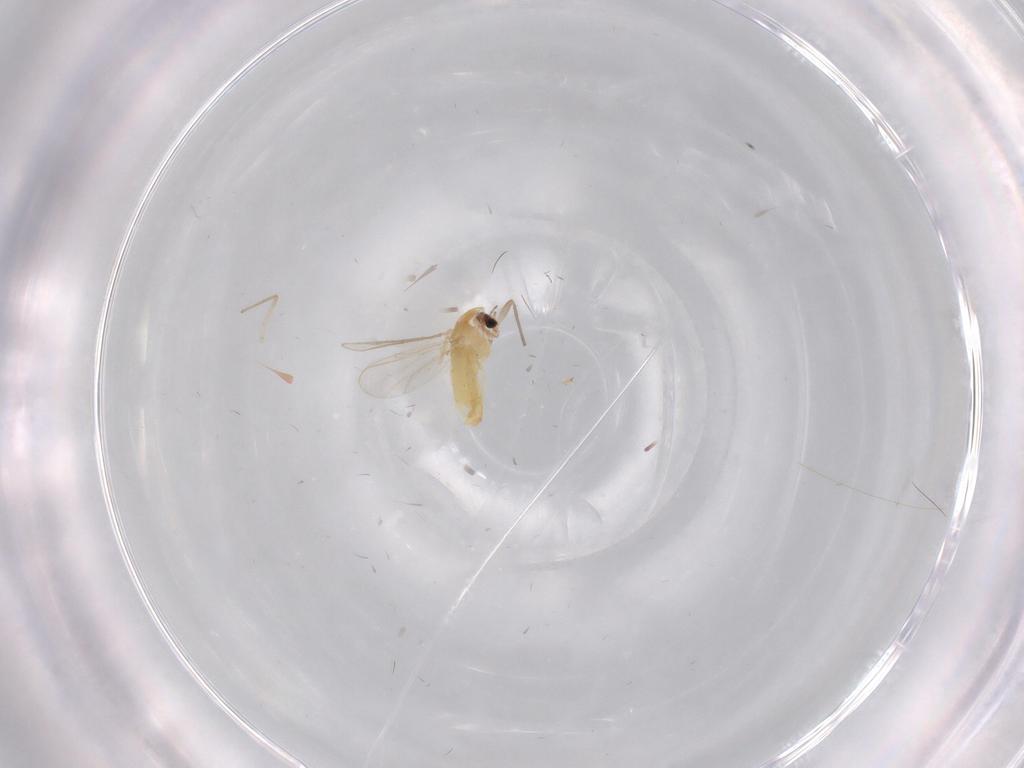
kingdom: Animalia
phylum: Arthropoda
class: Insecta
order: Diptera
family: Chironomidae
